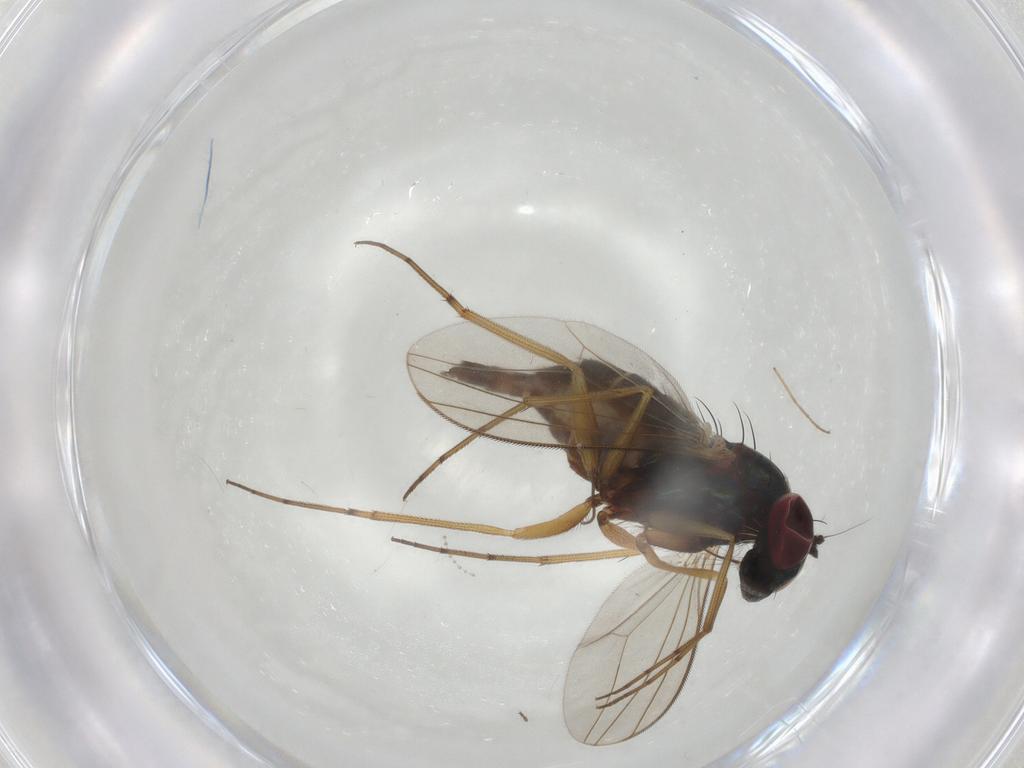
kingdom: Animalia
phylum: Arthropoda
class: Insecta
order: Diptera
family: Dolichopodidae
